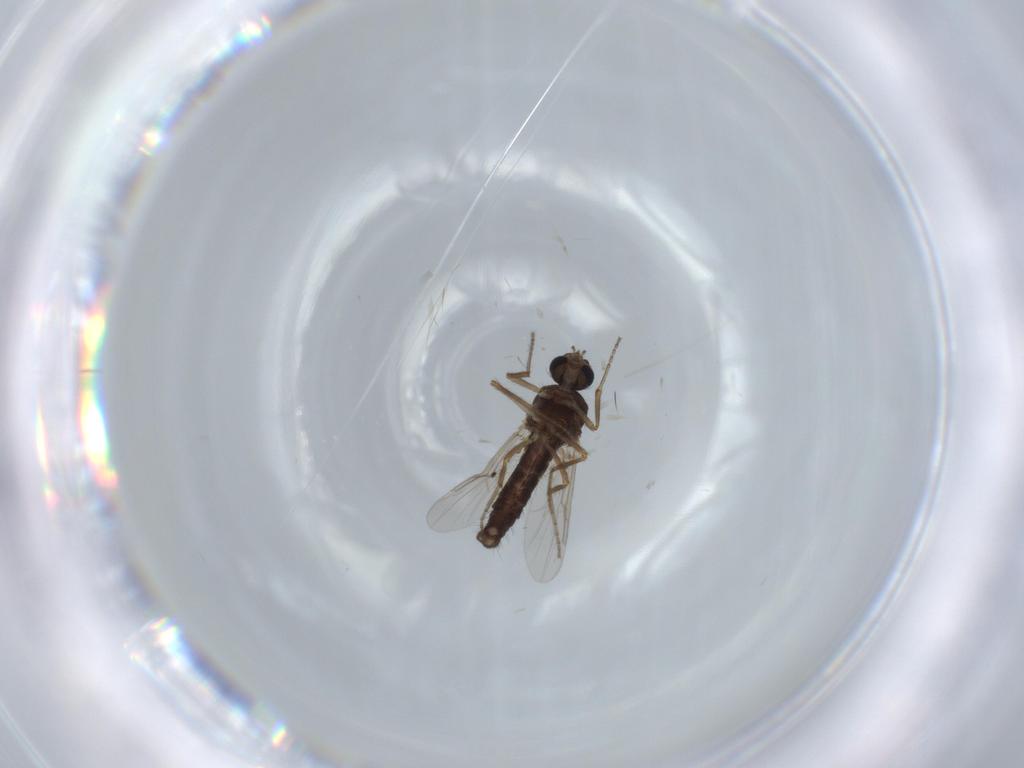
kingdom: Animalia
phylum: Arthropoda
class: Insecta
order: Diptera
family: Ceratopogonidae
